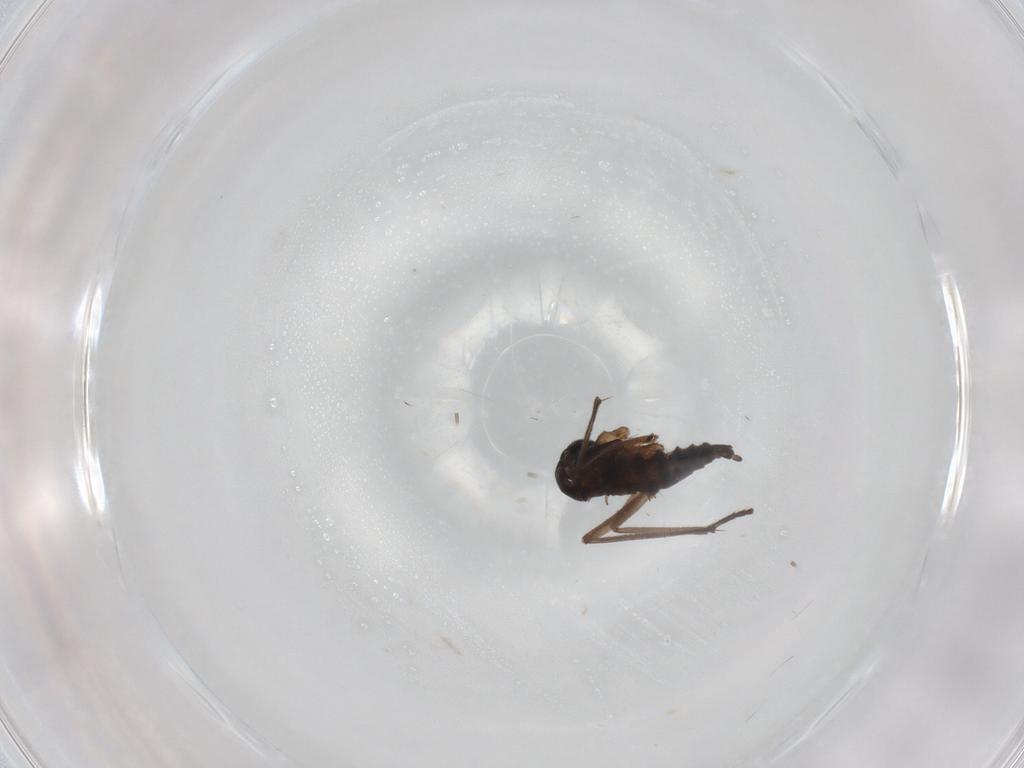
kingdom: Animalia
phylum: Arthropoda
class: Insecta
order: Diptera
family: Sciaridae
